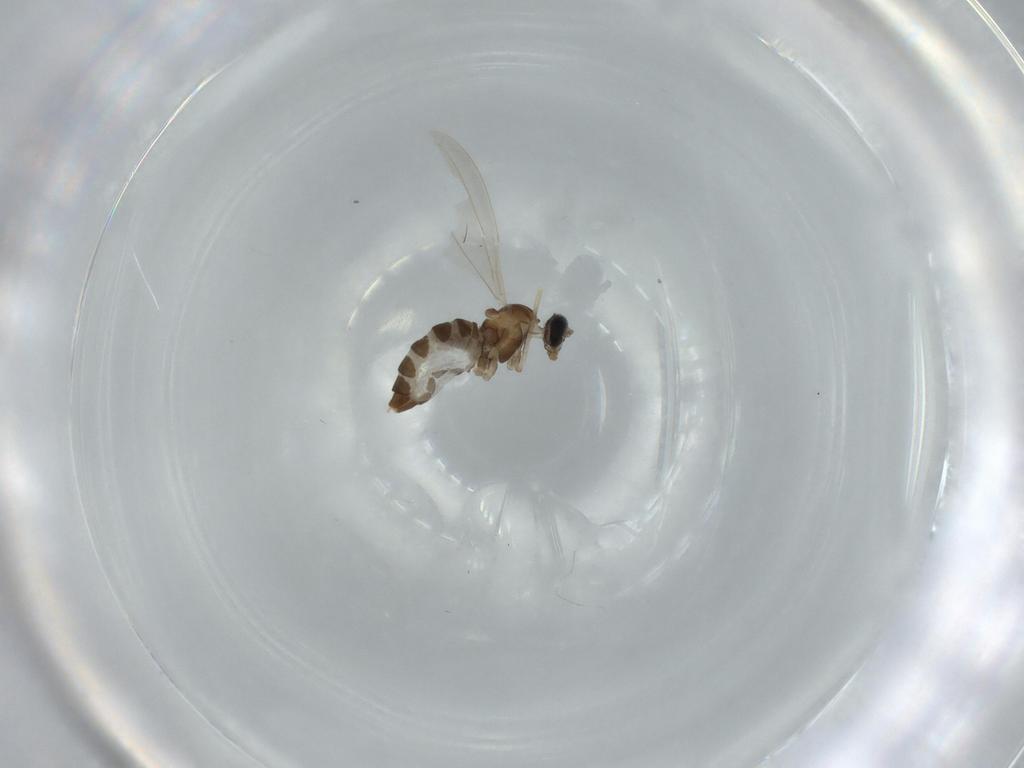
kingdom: Animalia
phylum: Arthropoda
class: Insecta
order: Diptera
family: Cecidomyiidae
